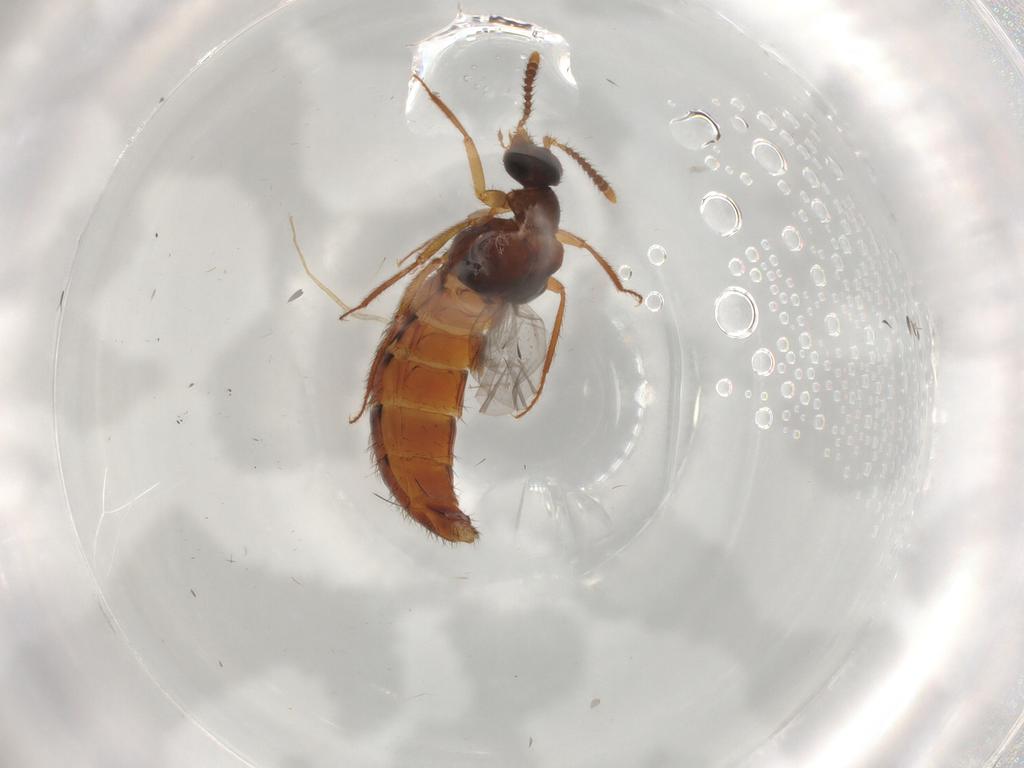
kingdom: Animalia
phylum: Arthropoda
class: Insecta
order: Coleoptera
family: Staphylinidae
